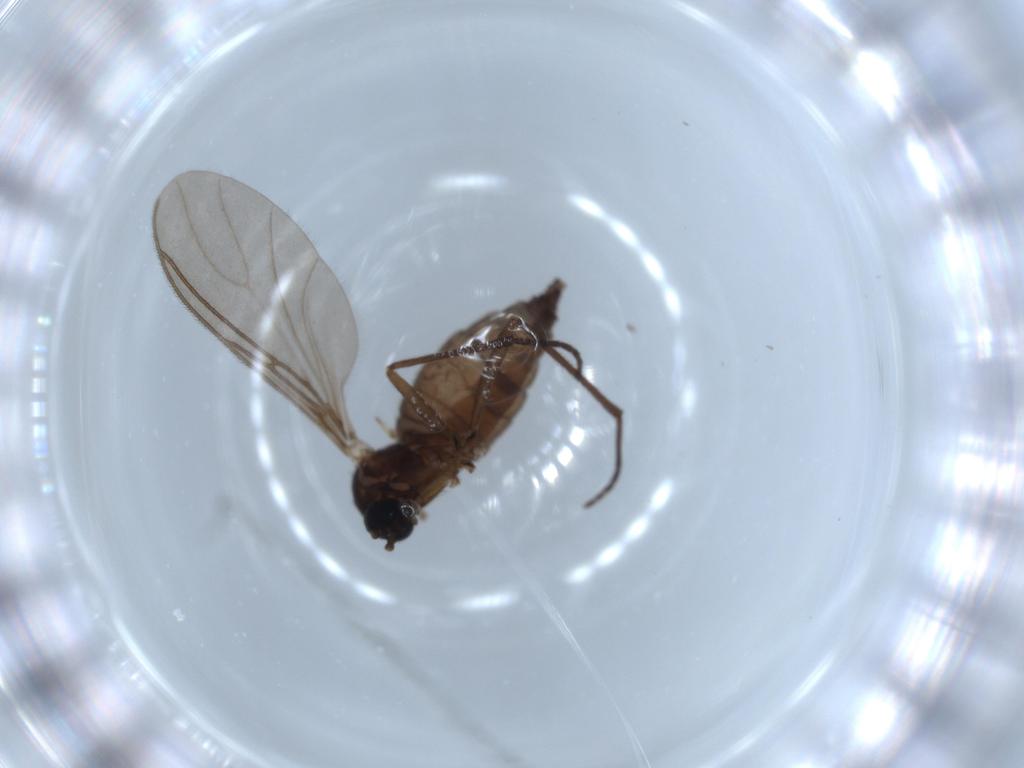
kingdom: Animalia
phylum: Arthropoda
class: Insecta
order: Diptera
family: Sciaridae
